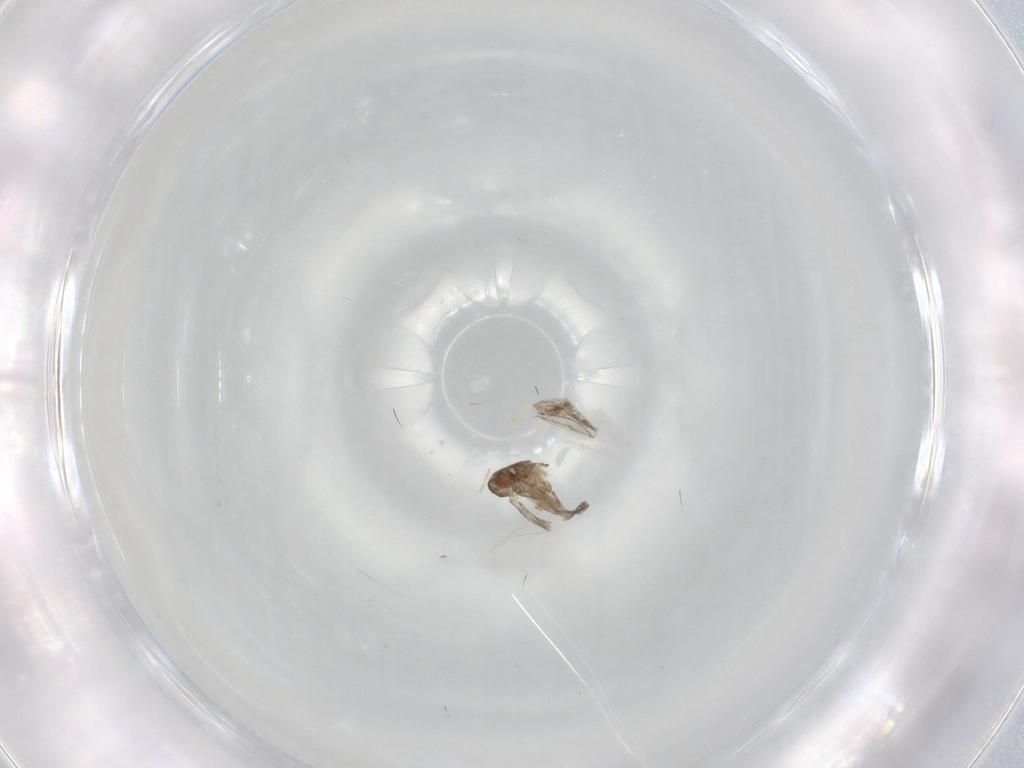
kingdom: Animalia
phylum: Arthropoda
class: Insecta
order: Diptera
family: Cecidomyiidae
